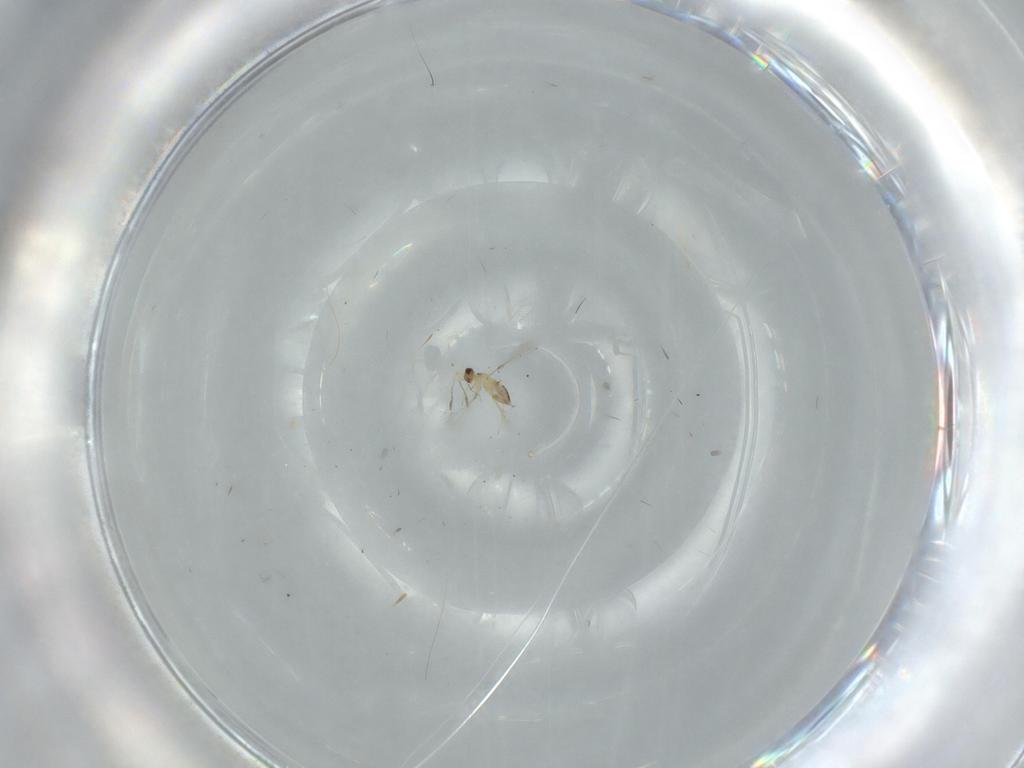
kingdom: Animalia
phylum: Arthropoda
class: Insecta
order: Hymenoptera
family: Mymaridae
